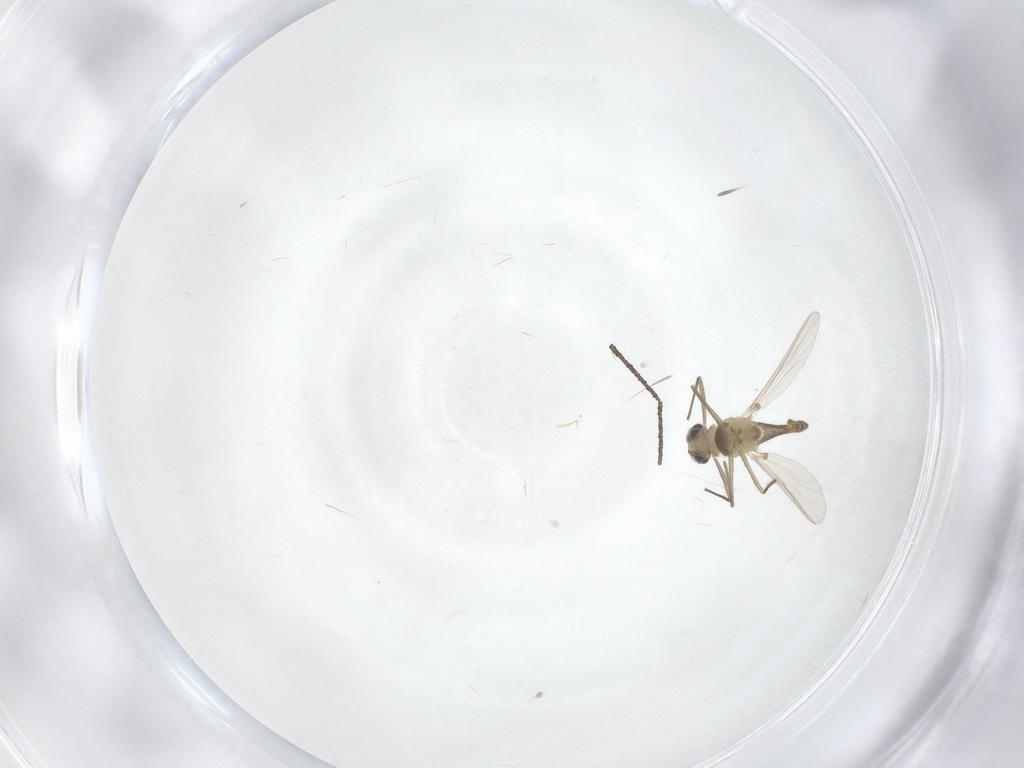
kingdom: Animalia
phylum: Arthropoda
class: Insecta
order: Diptera
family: Chironomidae
